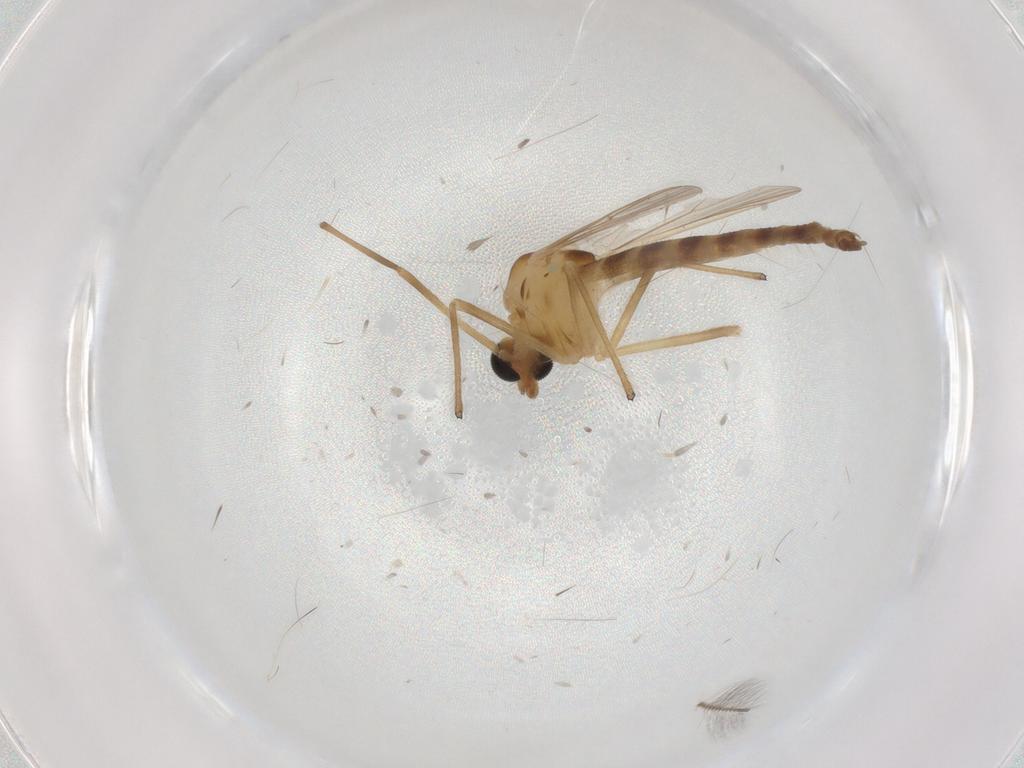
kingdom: Animalia
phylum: Arthropoda
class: Insecta
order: Diptera
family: Chironomidae
